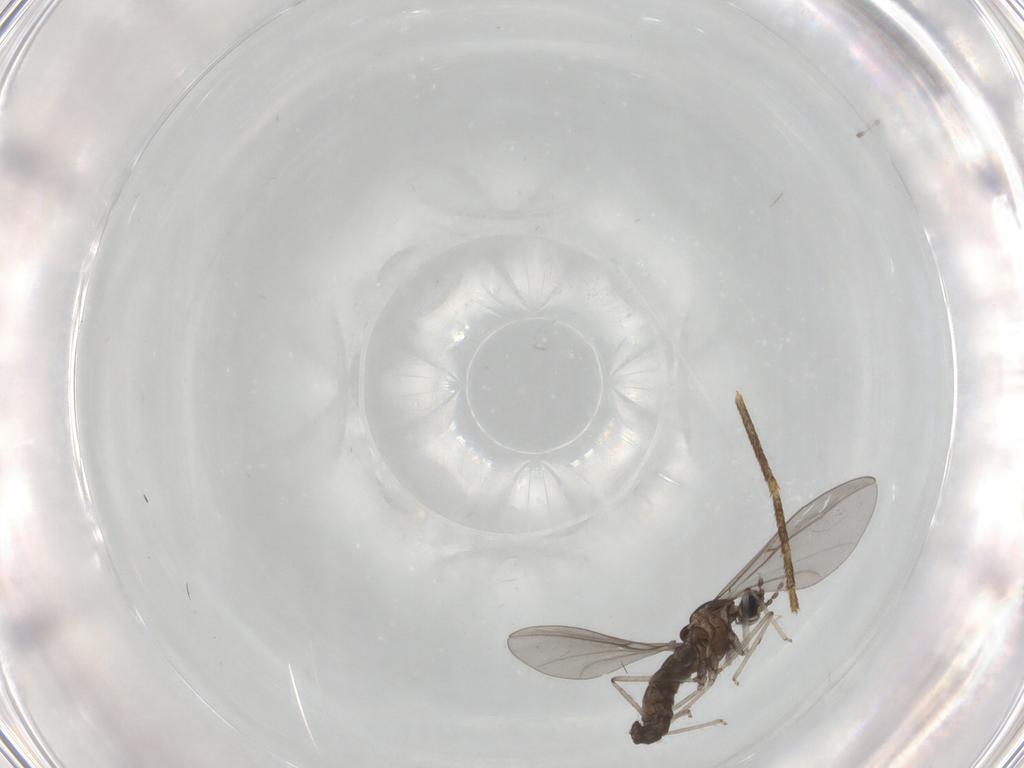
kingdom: Animalia
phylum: Arthropoda
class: Insecta
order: Diptera
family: Cecidomyiidae
